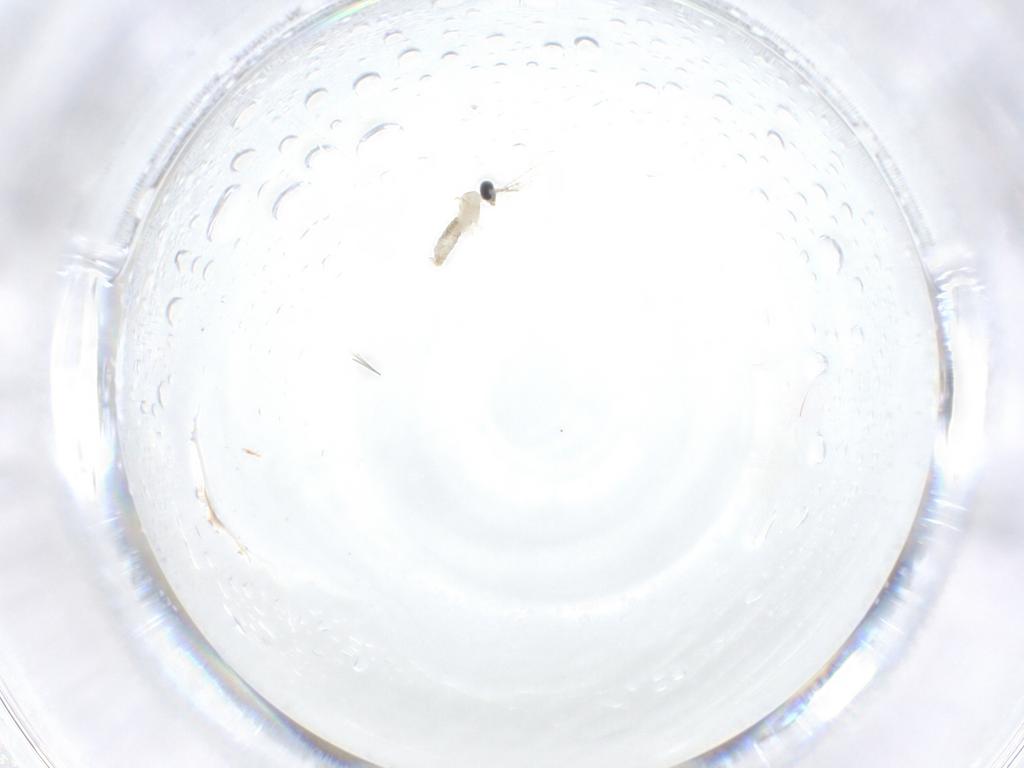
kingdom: Animalia
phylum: Arthropoda
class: Insecta
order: Diptera
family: Cecidomyiidae
